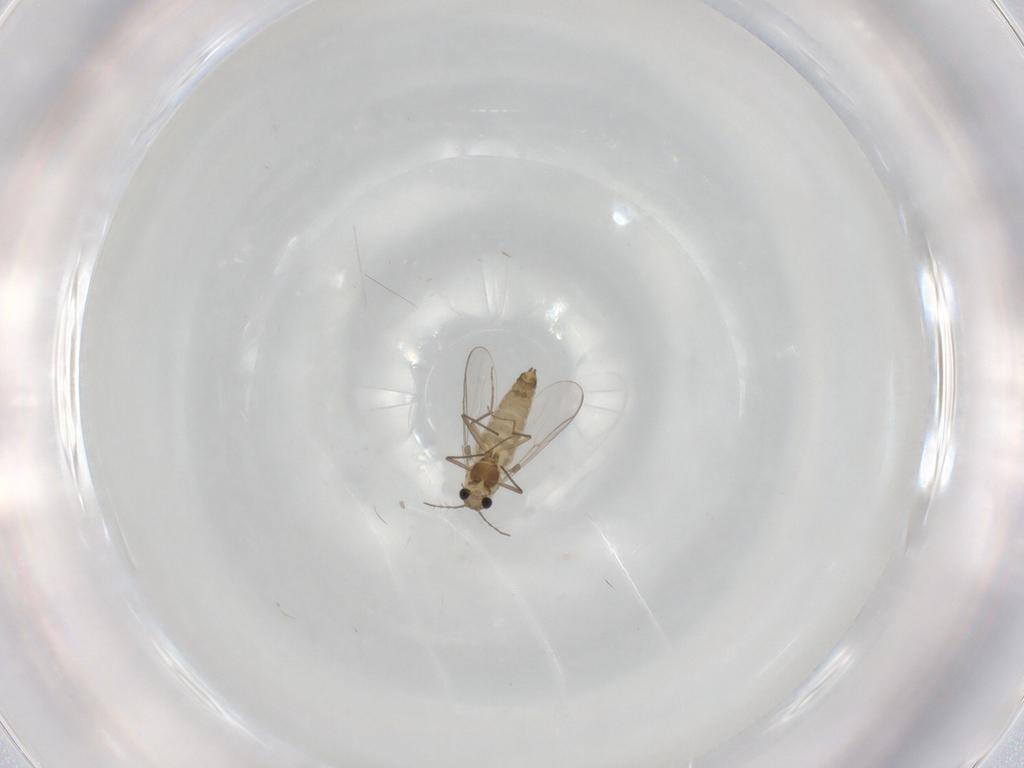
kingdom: Animalia
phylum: Arthropoda
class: Insecta
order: Diptera
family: Chironomidae
